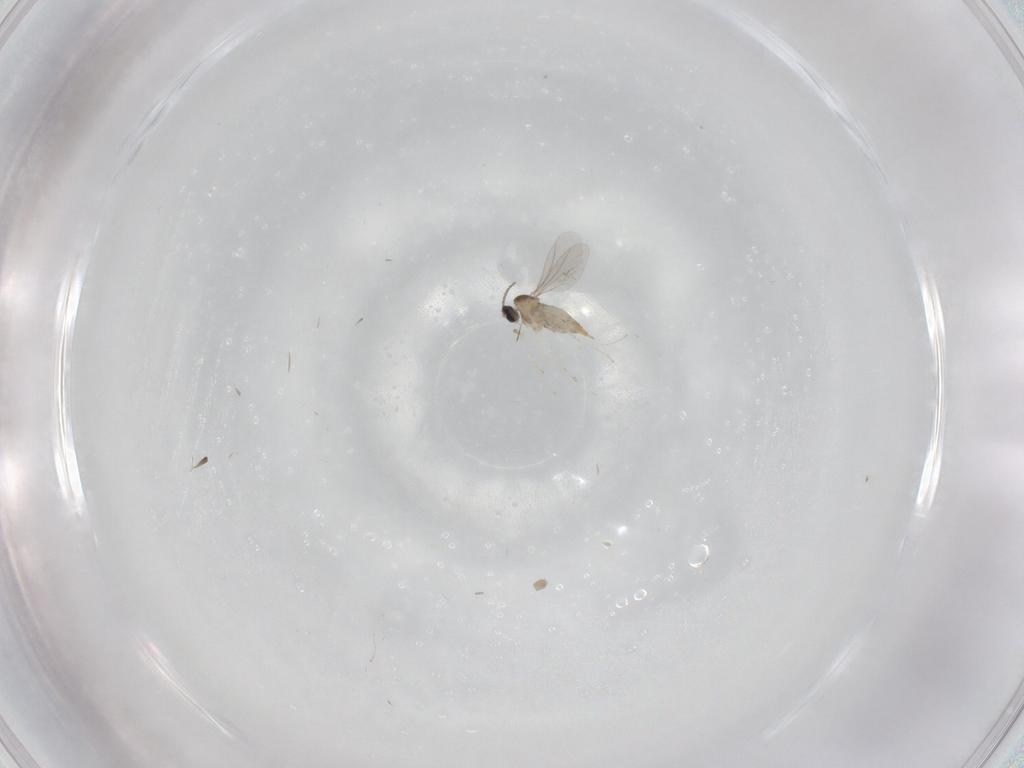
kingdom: Animalia
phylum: Arthropoda
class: Insecta
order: Diptera
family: Cecidomyiidae
